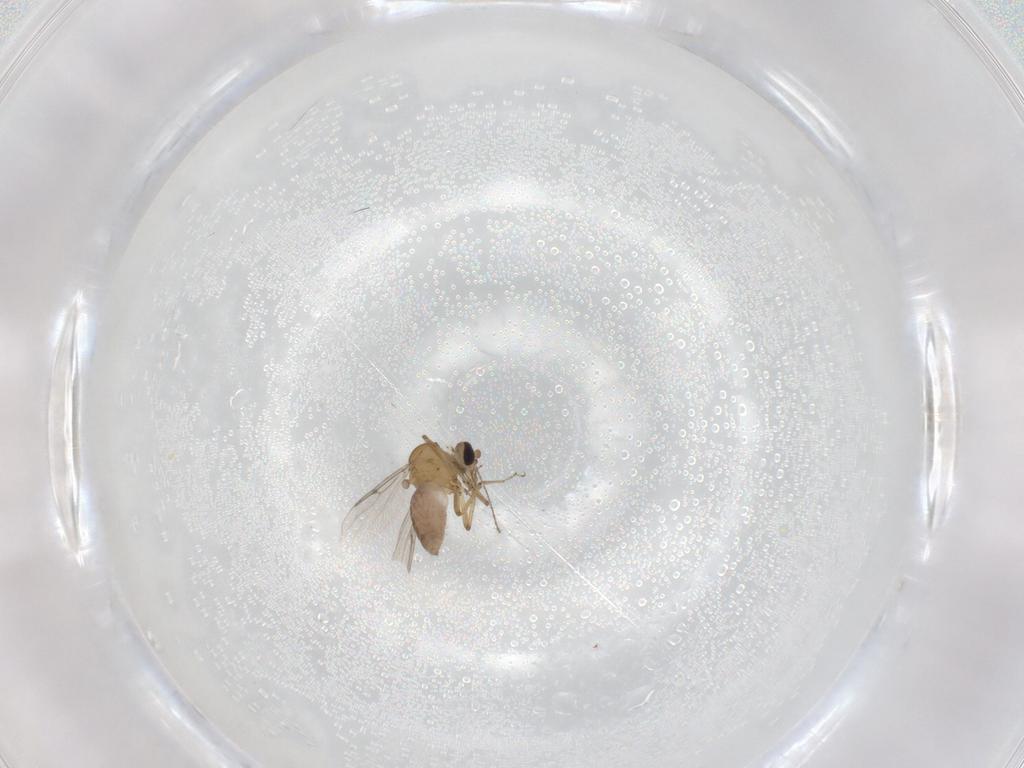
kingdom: Animalia
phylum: Arthropoda
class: Insecta
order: Diptera
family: Ceratopogonidae
